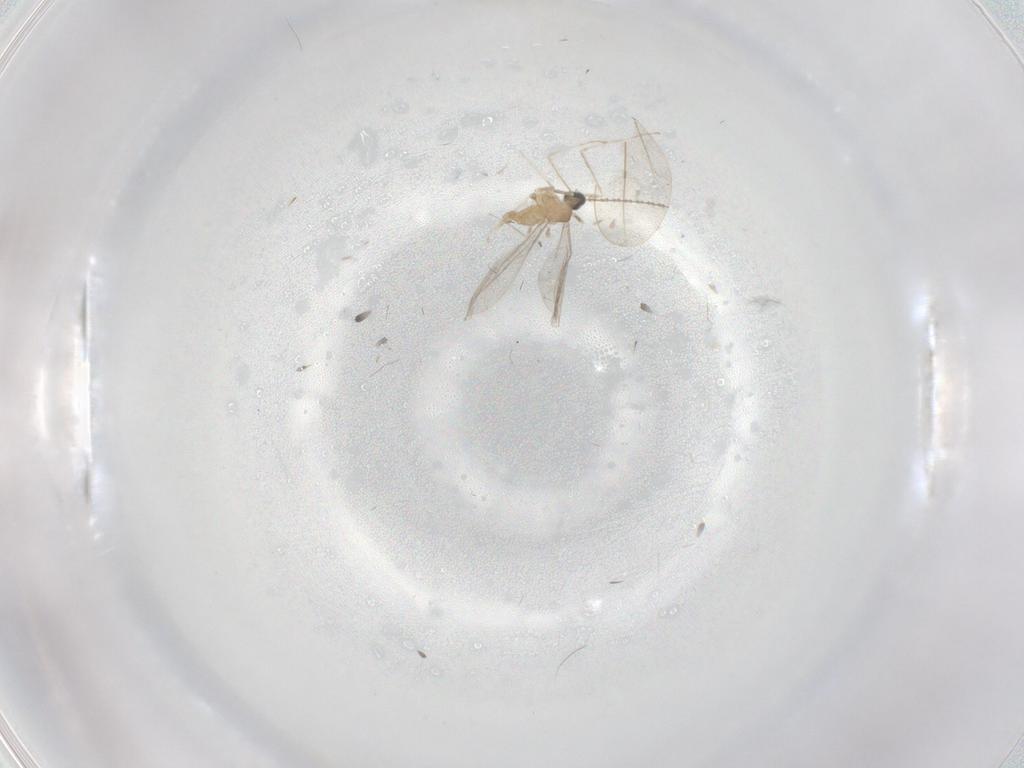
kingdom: Animalia
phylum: Arthropoda
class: Insecta
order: Diptera
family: Cecidomyiidae
